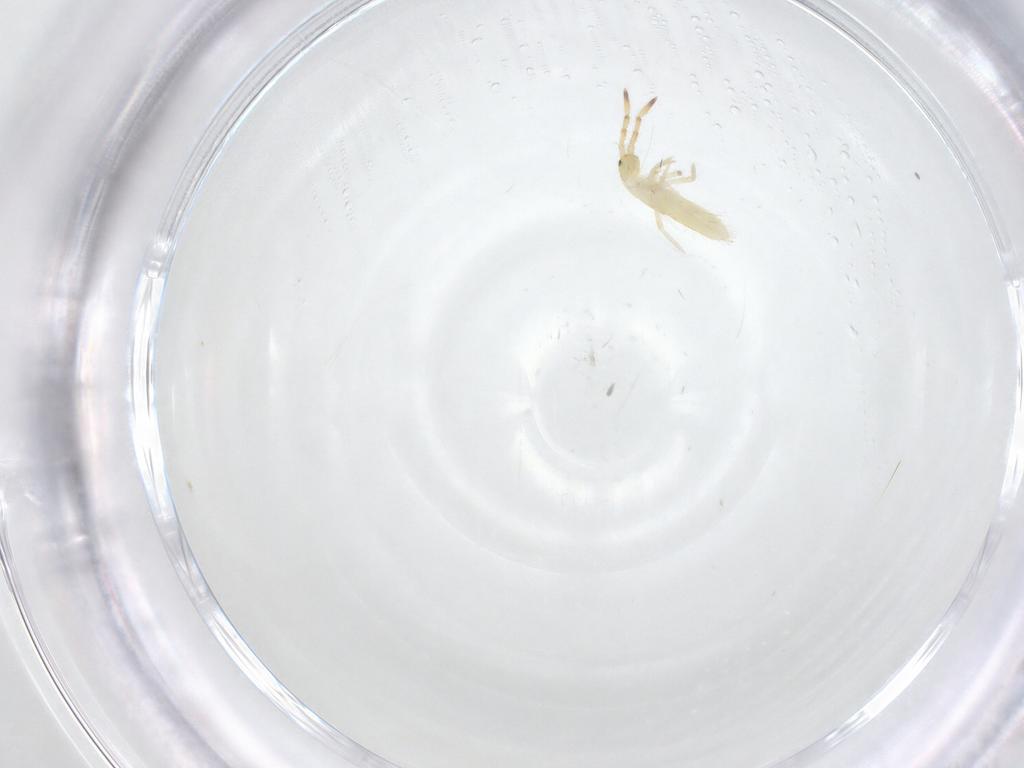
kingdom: Animalia
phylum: Arthropoda
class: Collembola
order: Entomobryomorpha
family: Entomobryidae
